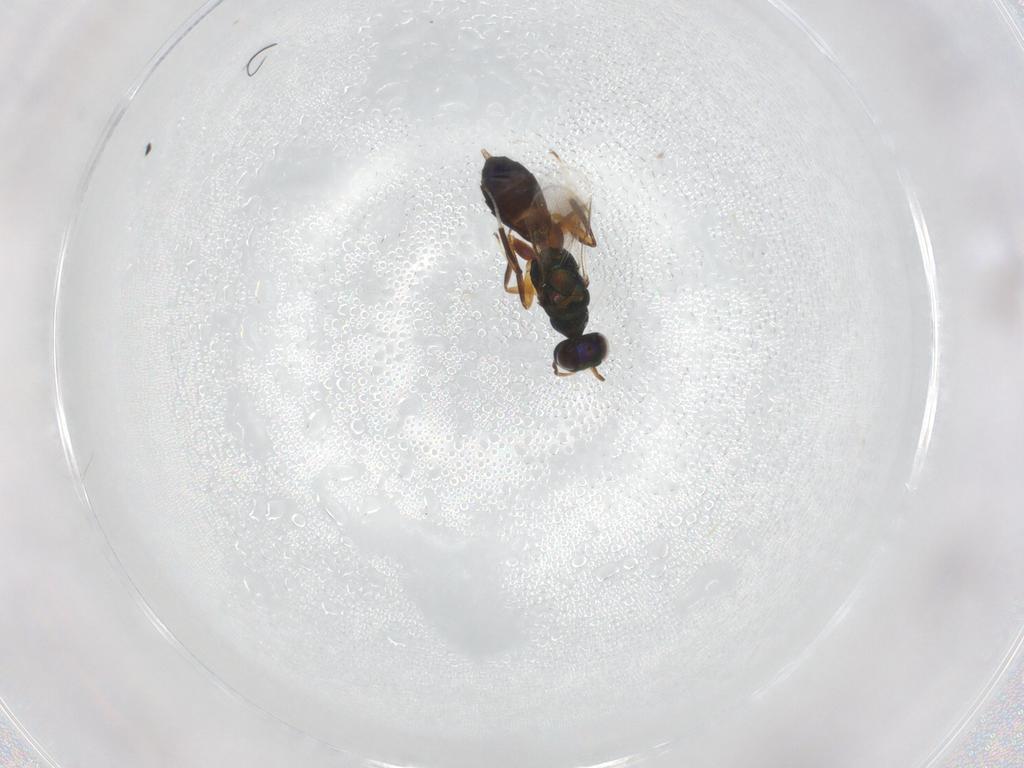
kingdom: Animalia
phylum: Arthropoda
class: Insecta
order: Hymenoptera
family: Cleonyminae
